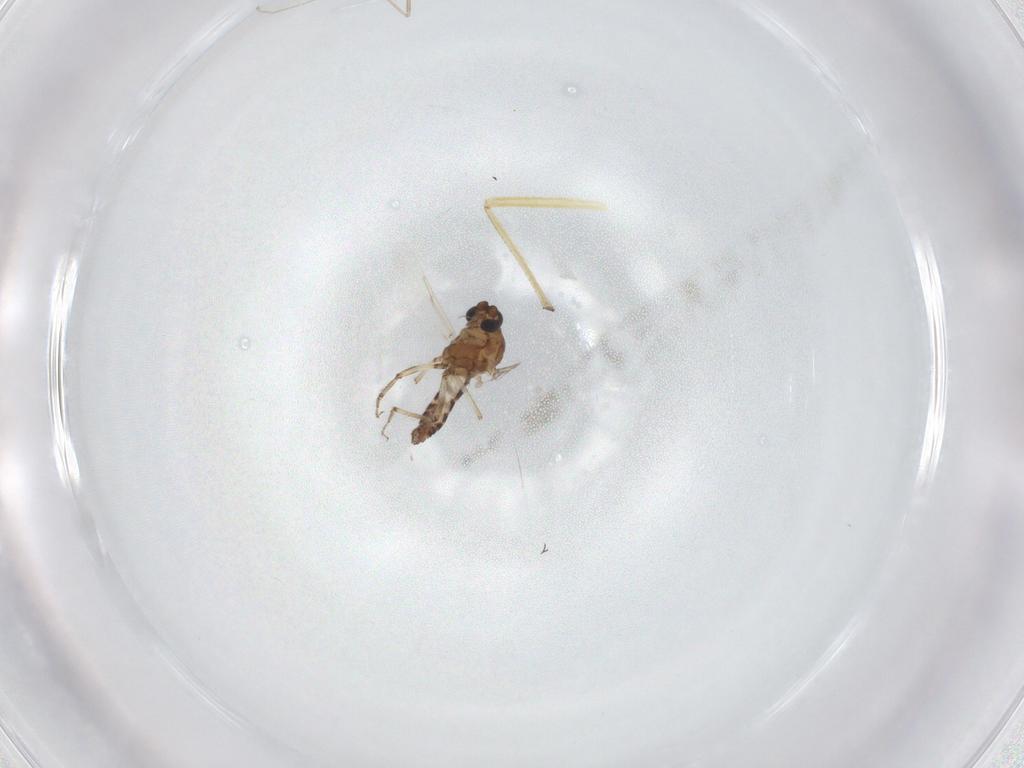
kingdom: Animalia
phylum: Arthropoda
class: Insecta
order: Diptera
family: Ceratopogonidae
